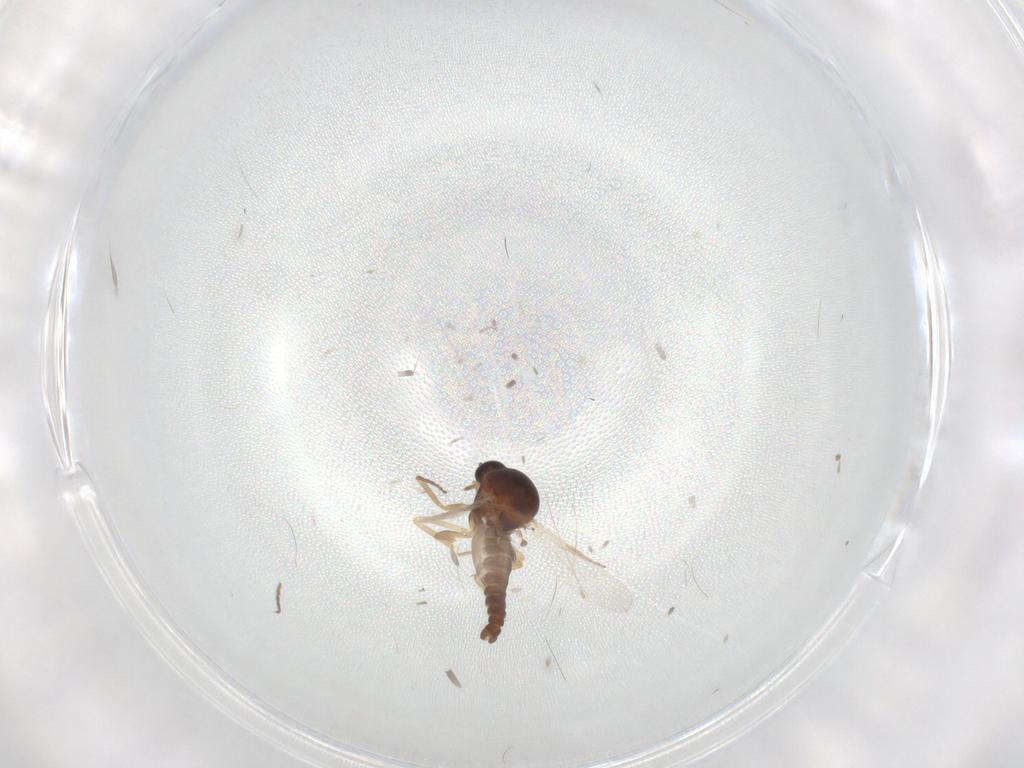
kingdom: Animalia
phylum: Arthropoda
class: Insecta
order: Diptera
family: Ceratopogonidae
